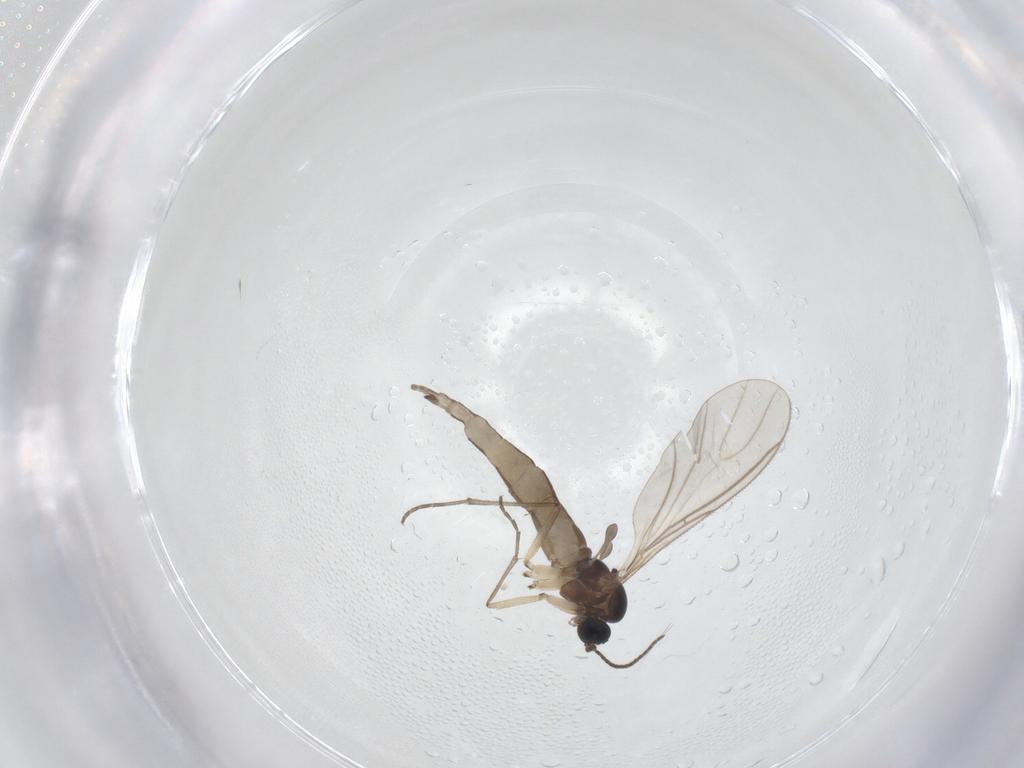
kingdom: Animalia
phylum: Arthropoda
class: Insecta
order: Diptera
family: Sciaridae
